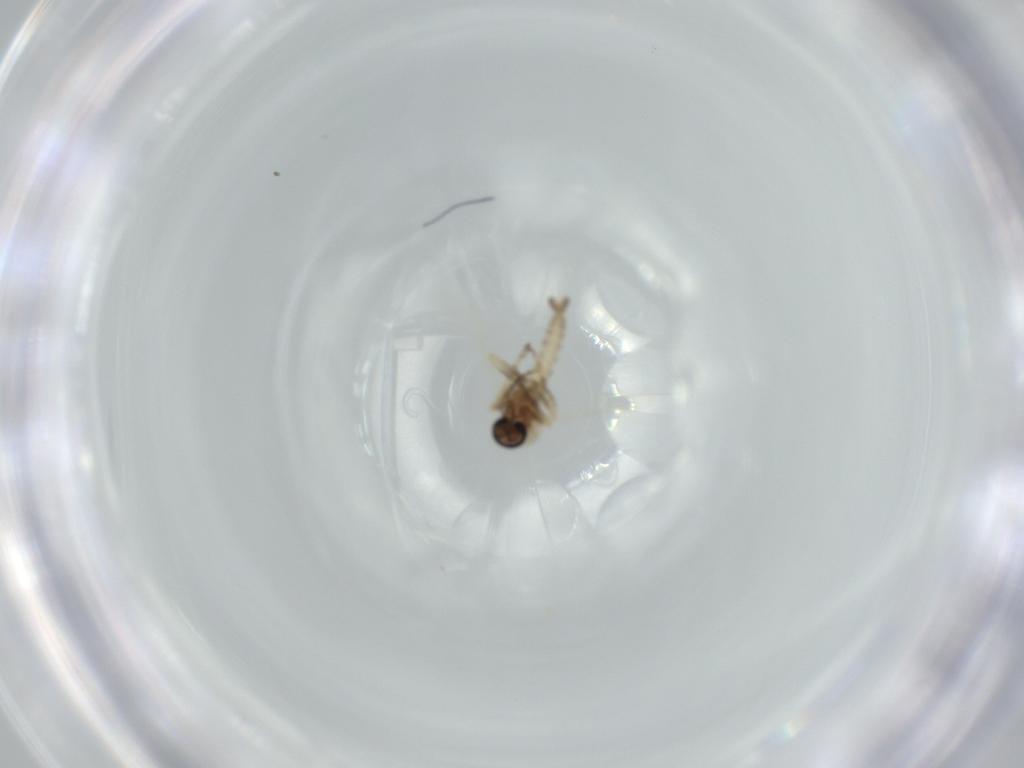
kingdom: Animalia
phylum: Arthropoda
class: Insecta
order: Diptera
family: Ceratopogonidae
